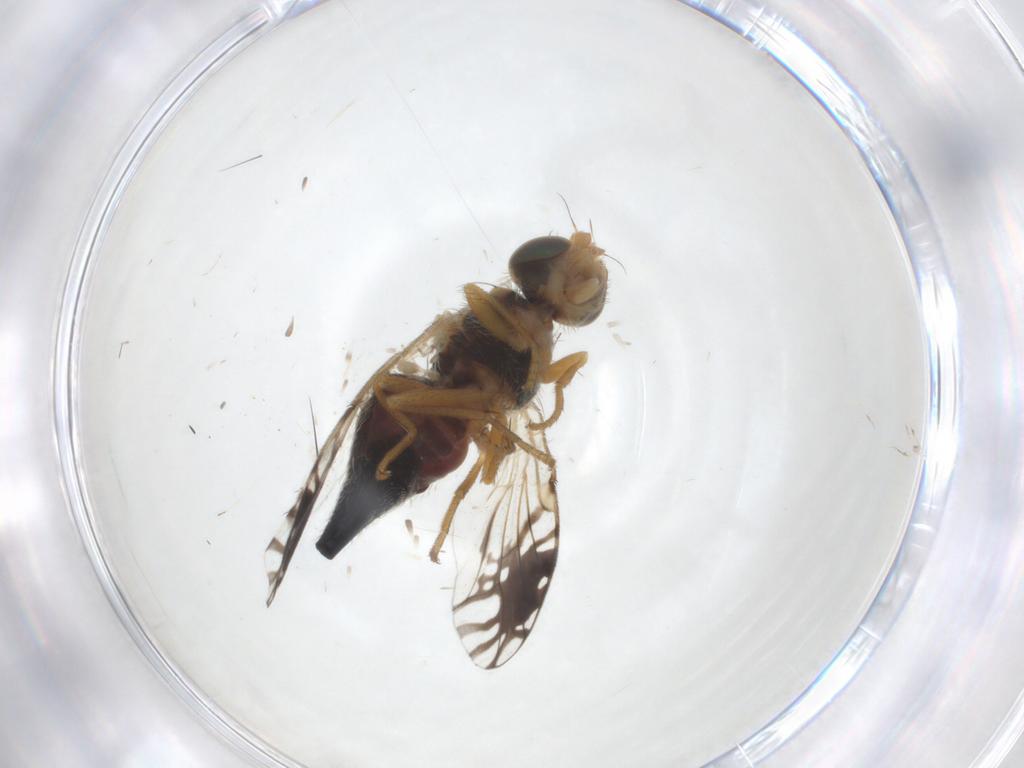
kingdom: Animalia
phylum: Arthropoda
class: Insecta
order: Diptera
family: Tephritidae
